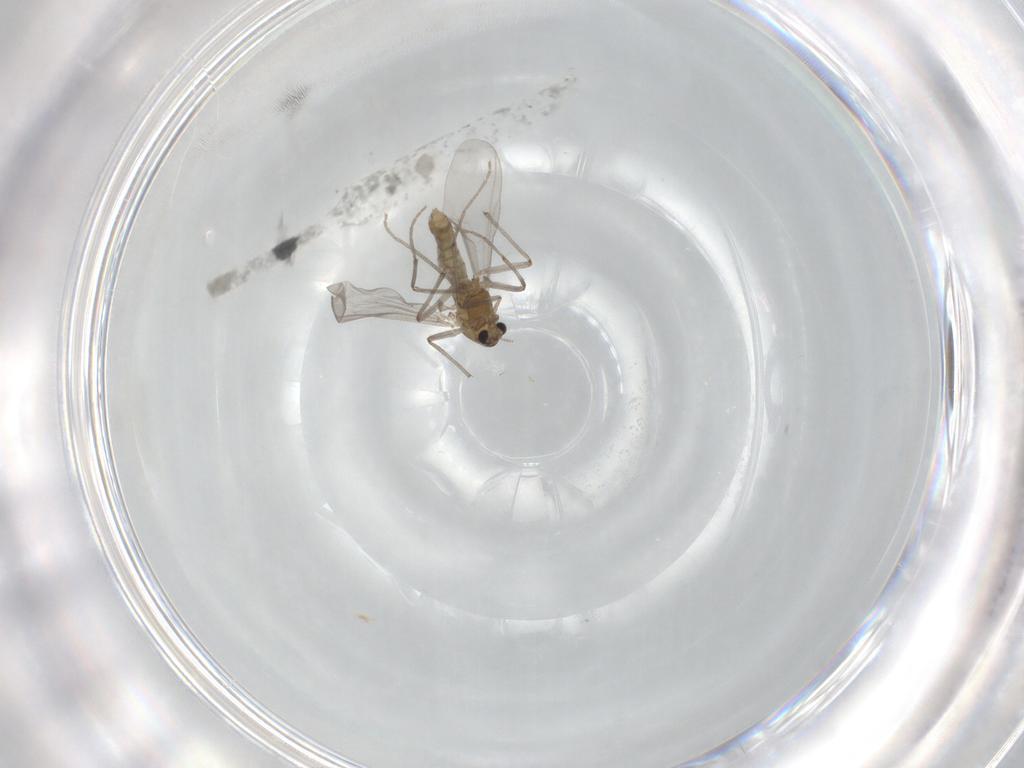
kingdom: Animalia
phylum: Arthropoda
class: Insecta
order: Diptera
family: Chironomidae
